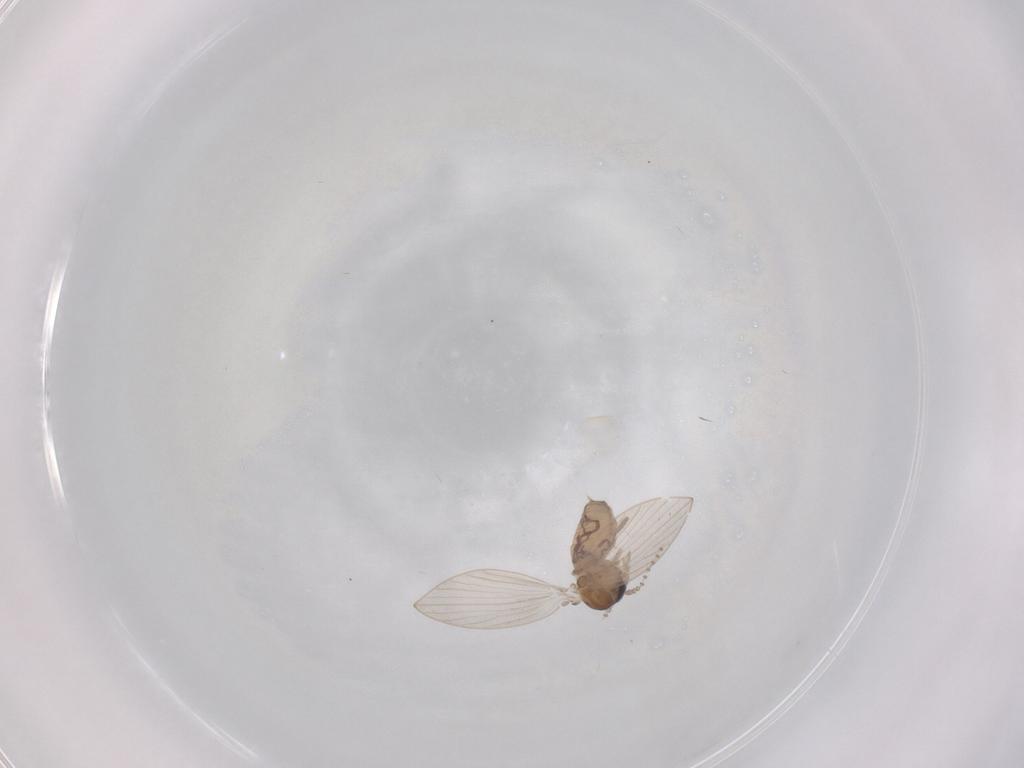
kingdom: Animalia
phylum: Arthropoda
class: Insecta
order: Diptera
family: Psychodidae
